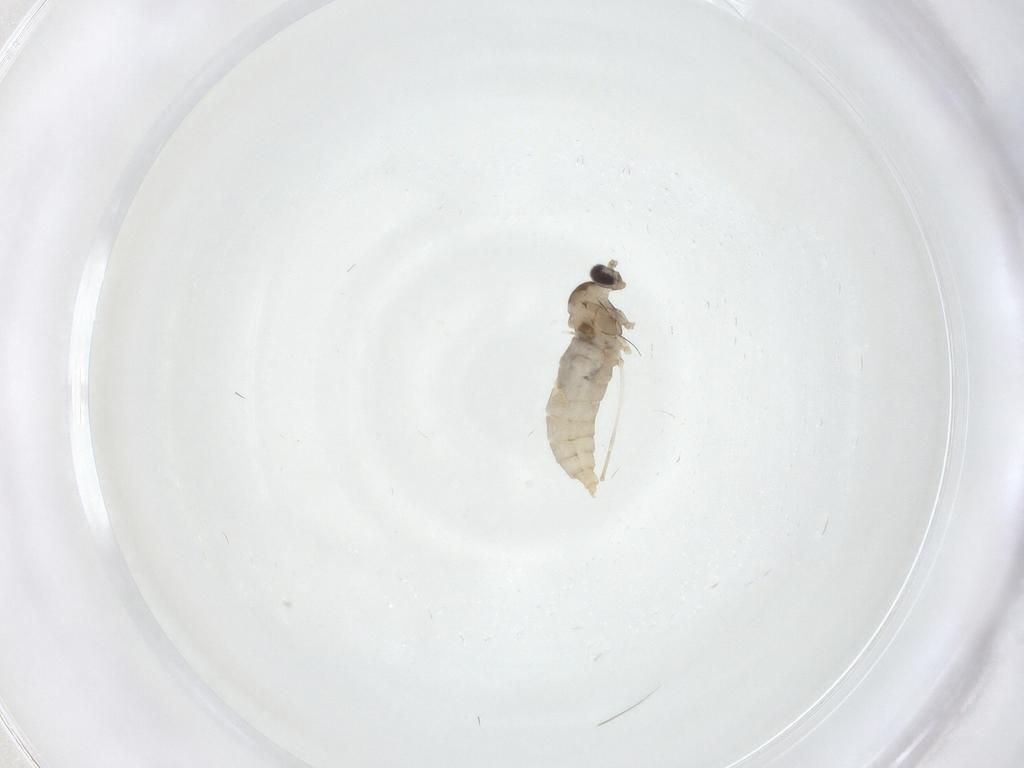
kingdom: Animalia
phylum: Arthropoda
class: Insecta
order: Diptera
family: Cecidomyiidae
